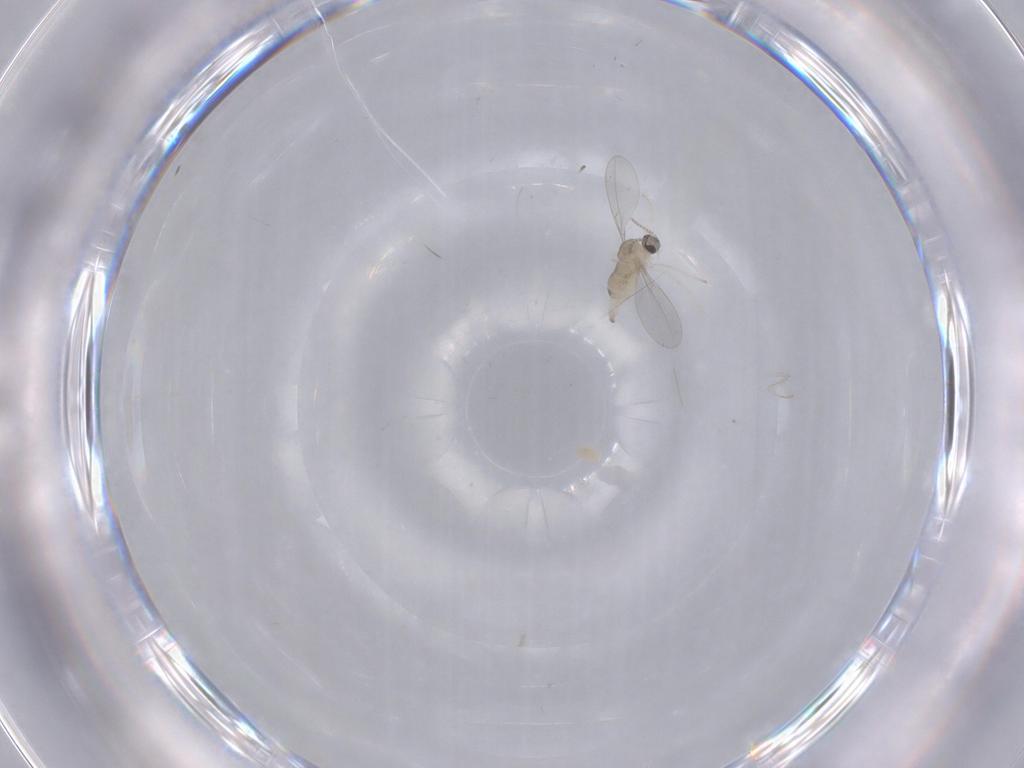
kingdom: Animalia
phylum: Arthropoda
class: Insecta
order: Diptera
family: Cecidomyiidae
